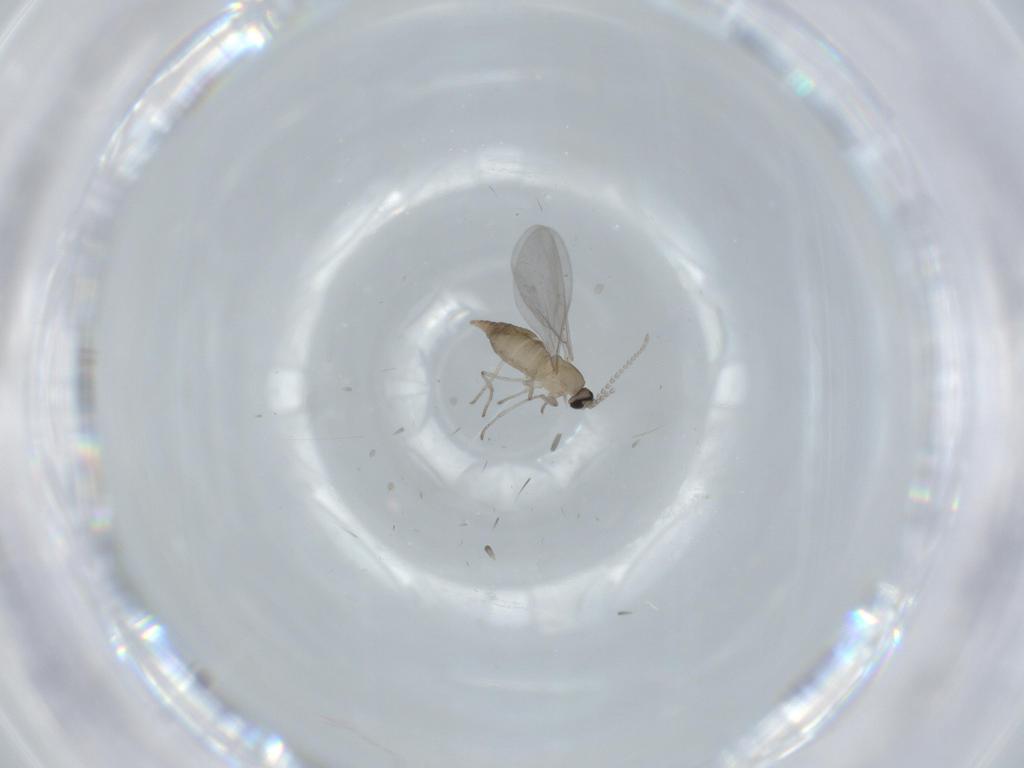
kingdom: Animalia
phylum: Arthropoda
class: Insecta
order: Diptera
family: Cecidomyiidae
